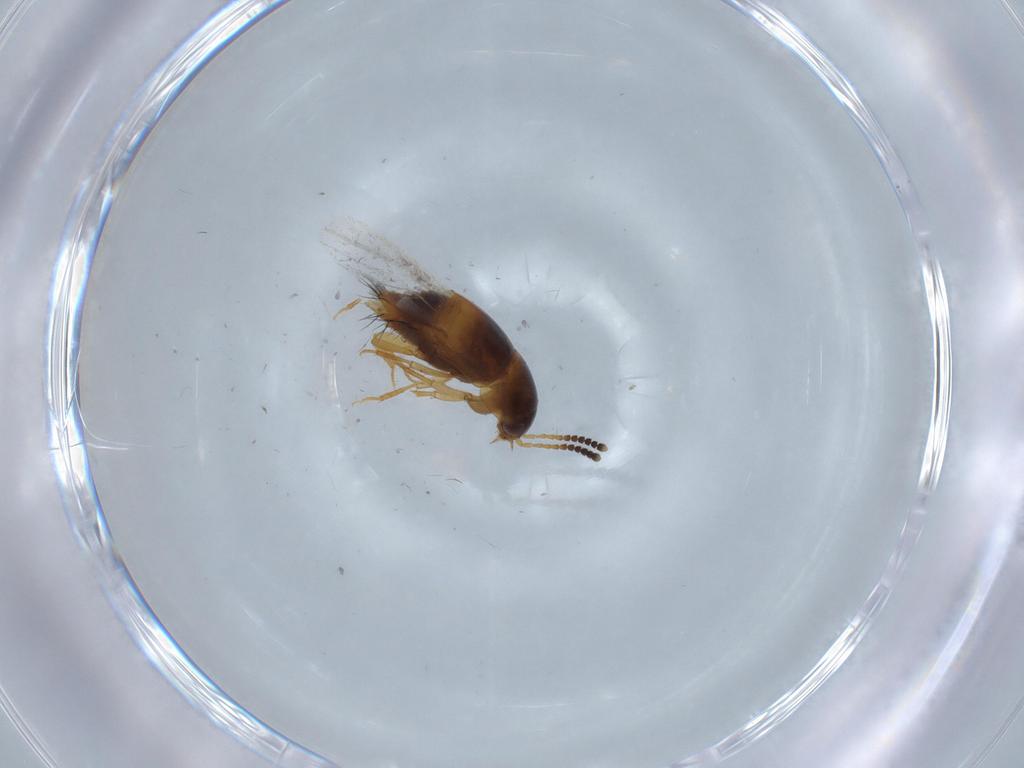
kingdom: Animalia
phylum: Arthropoda
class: Insecta
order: Coleoptera
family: Staphylinidae
